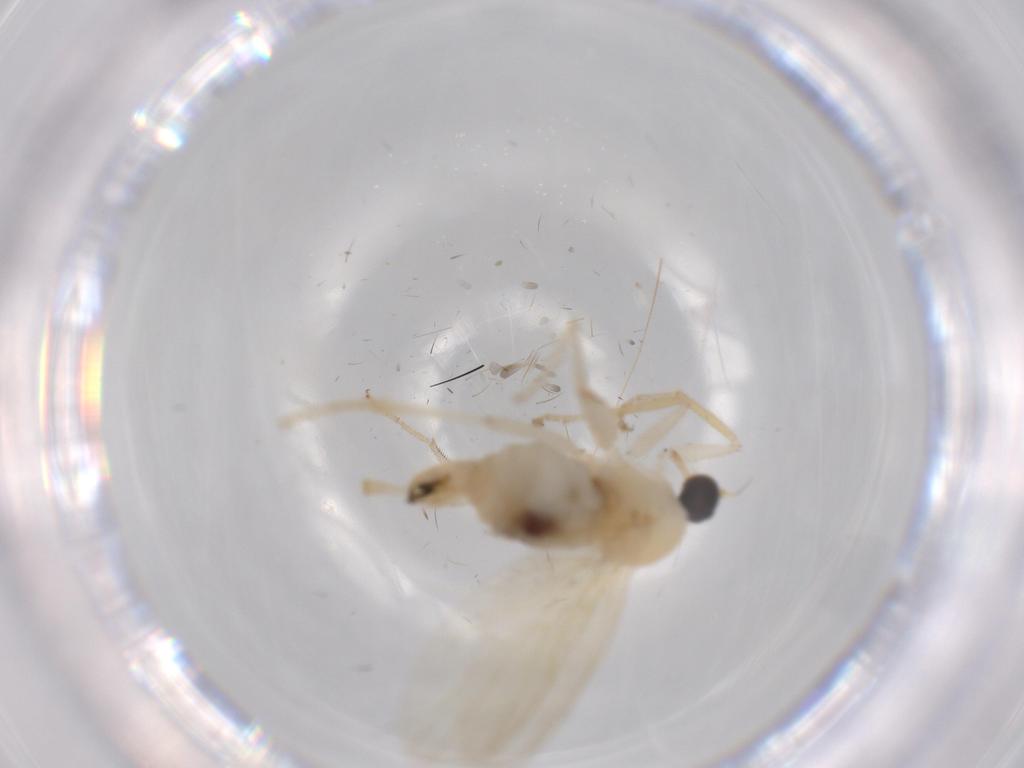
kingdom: Animalia
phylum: Arthropoda
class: Insecta
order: Diptera
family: Hybotidae
